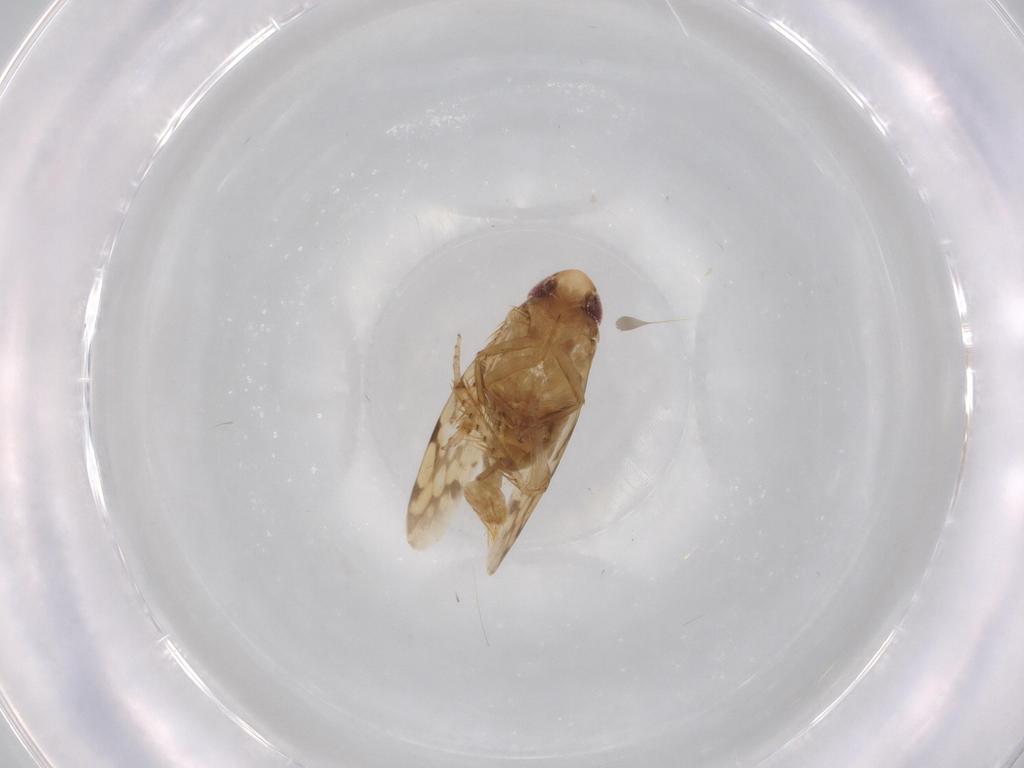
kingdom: Animalia
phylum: Arthropoda
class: Insecta
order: Hemiptera
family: Cicadellidae
